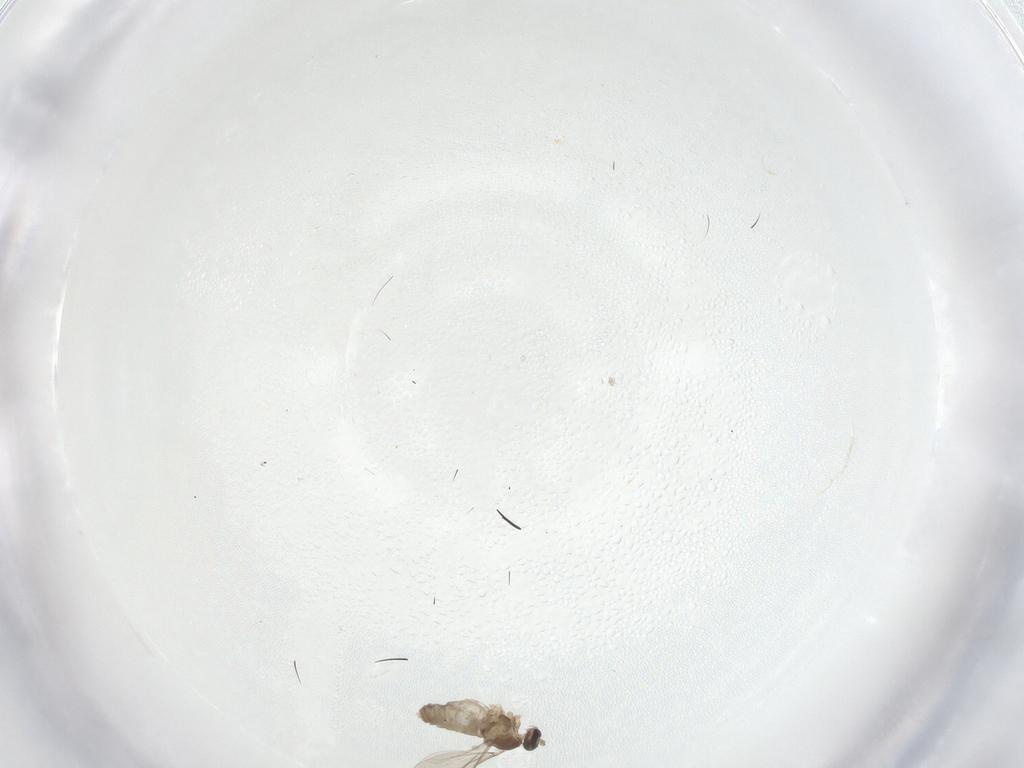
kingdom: Animalia
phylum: Arthropoda
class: Insecta
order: Diptera
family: Cecidomyiidae
